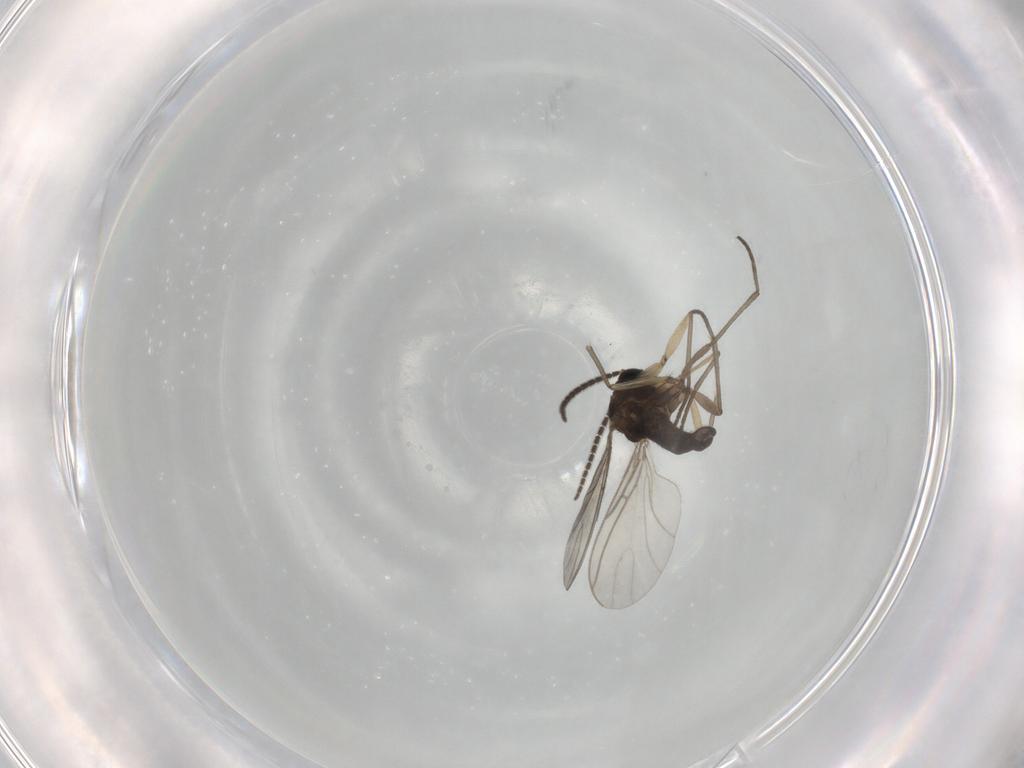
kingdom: Animalia
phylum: Arthropoda
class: Insecta
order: Diptera
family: Sciaridae
